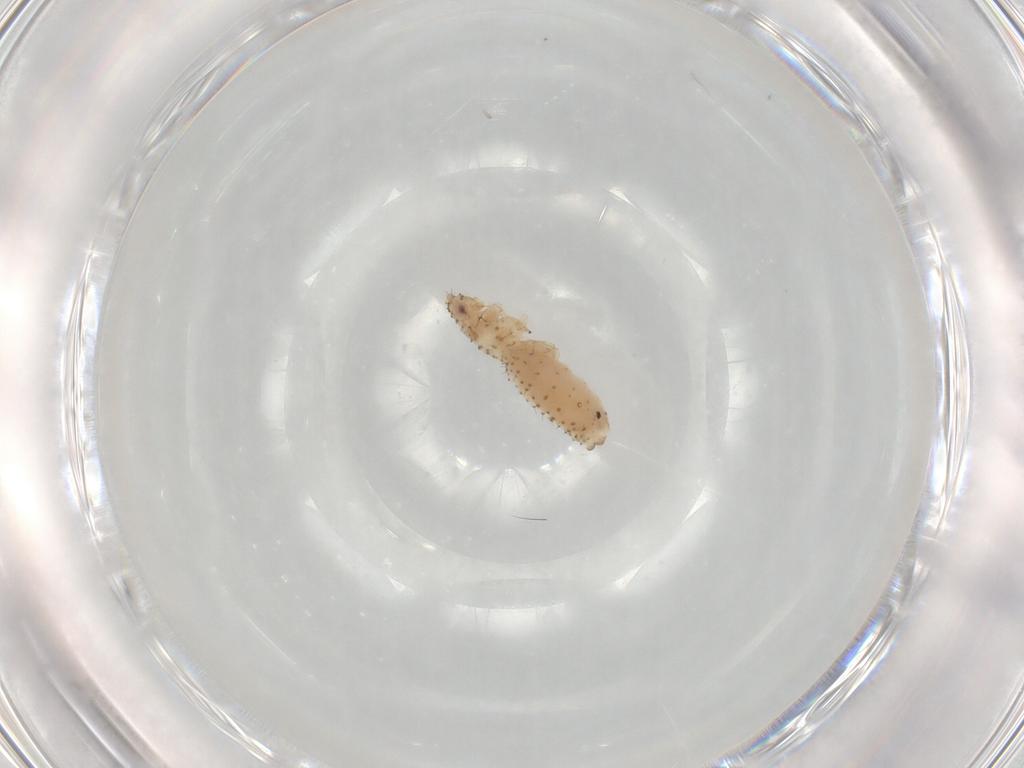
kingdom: Animalia
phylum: Arthropoda
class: Insecta
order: Hemiptera
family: Aphididae
